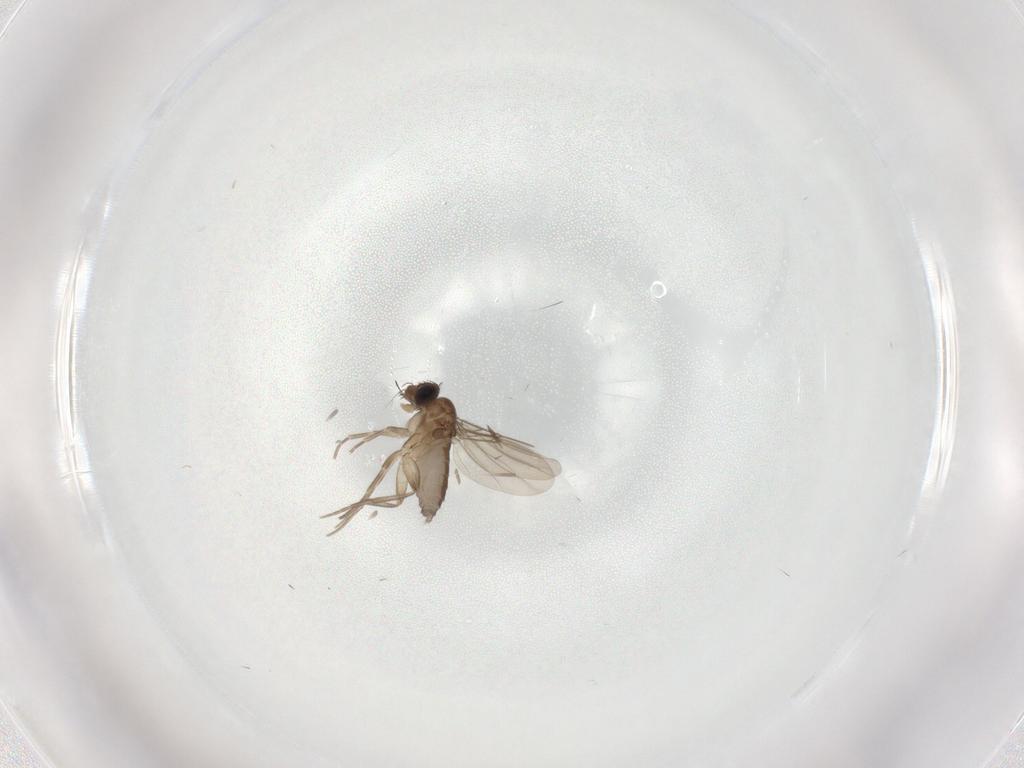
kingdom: Animalia
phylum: Arthropoda
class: Insecta
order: Diptera
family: Phoridae
